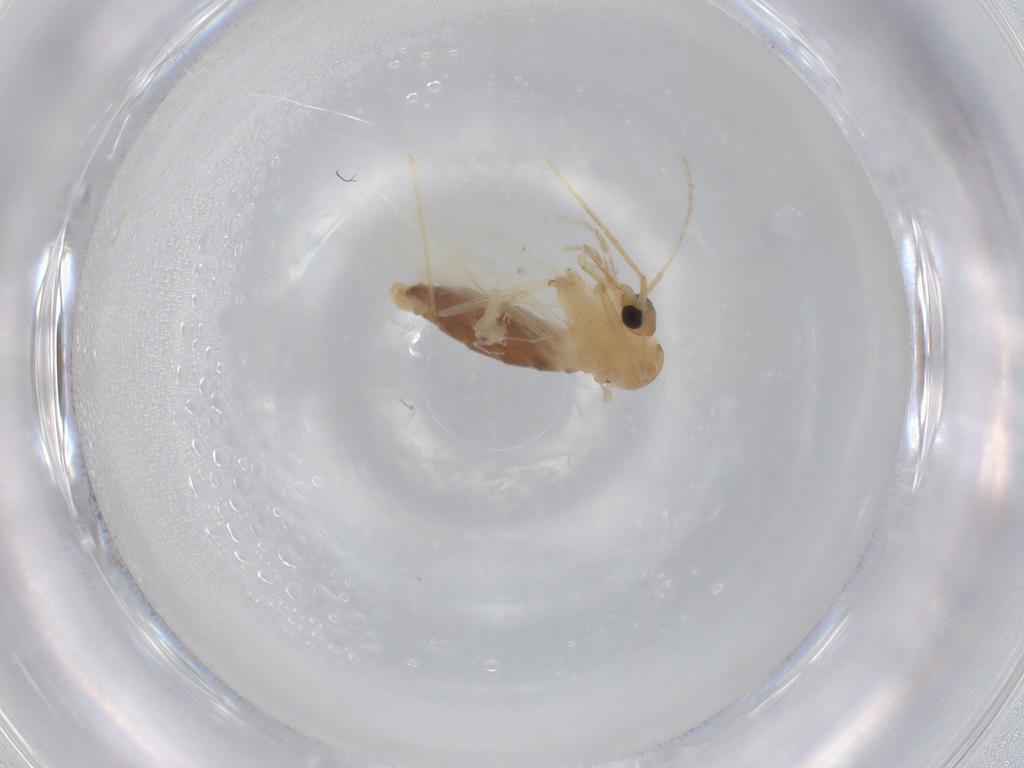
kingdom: Animalia
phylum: Arthropoda
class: Insecta
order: Diptera
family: Psychodidae
